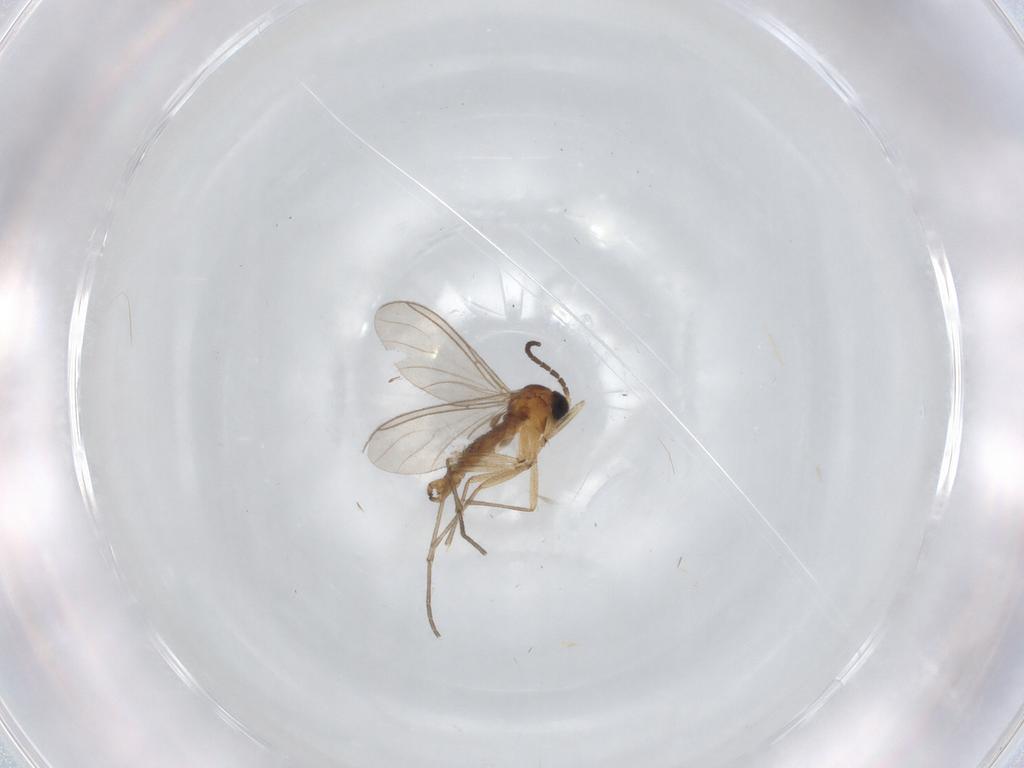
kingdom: Animalia
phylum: Arthropoda
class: Insecta
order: Diptera
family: Sciaridae
